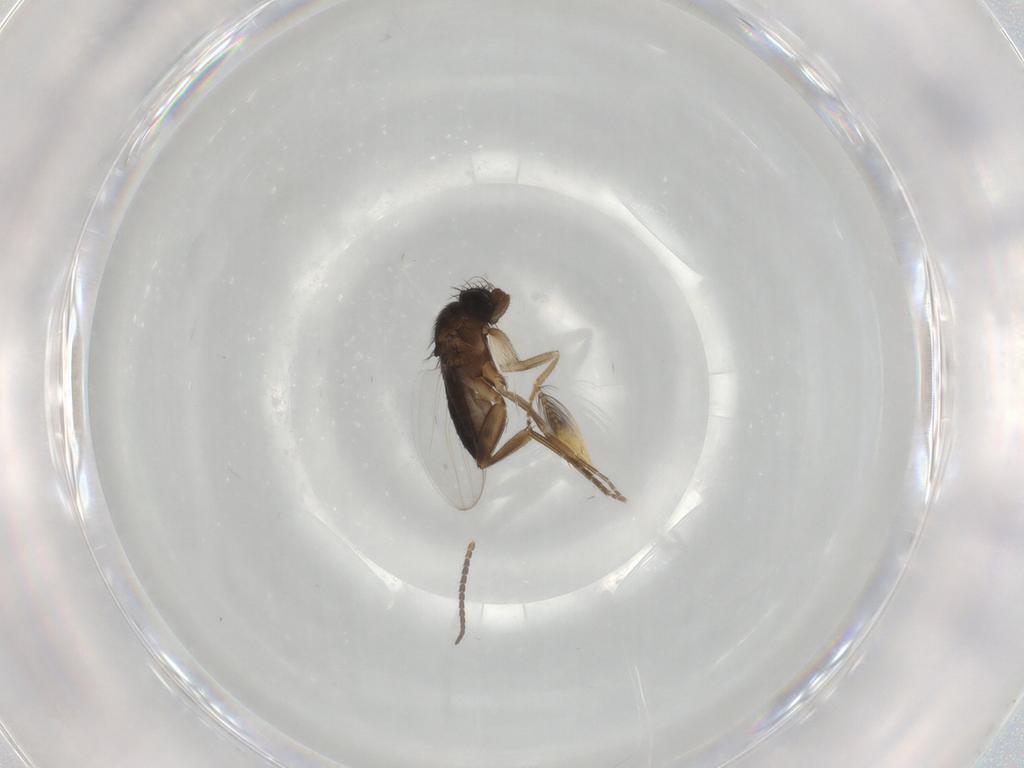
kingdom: Animalia
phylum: Arthropoda
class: Insecta
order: Diptera
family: Phoridae
